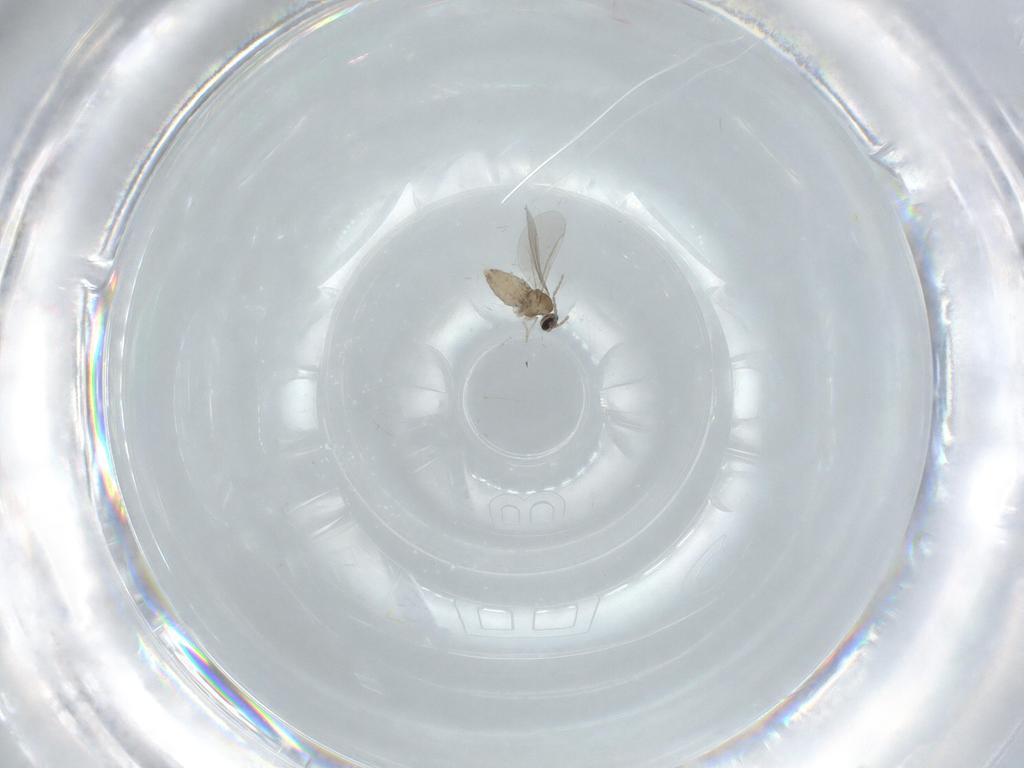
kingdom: Animalia
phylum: Arthropoda
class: Insecta
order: Diptera
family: Cecidomyiidae
